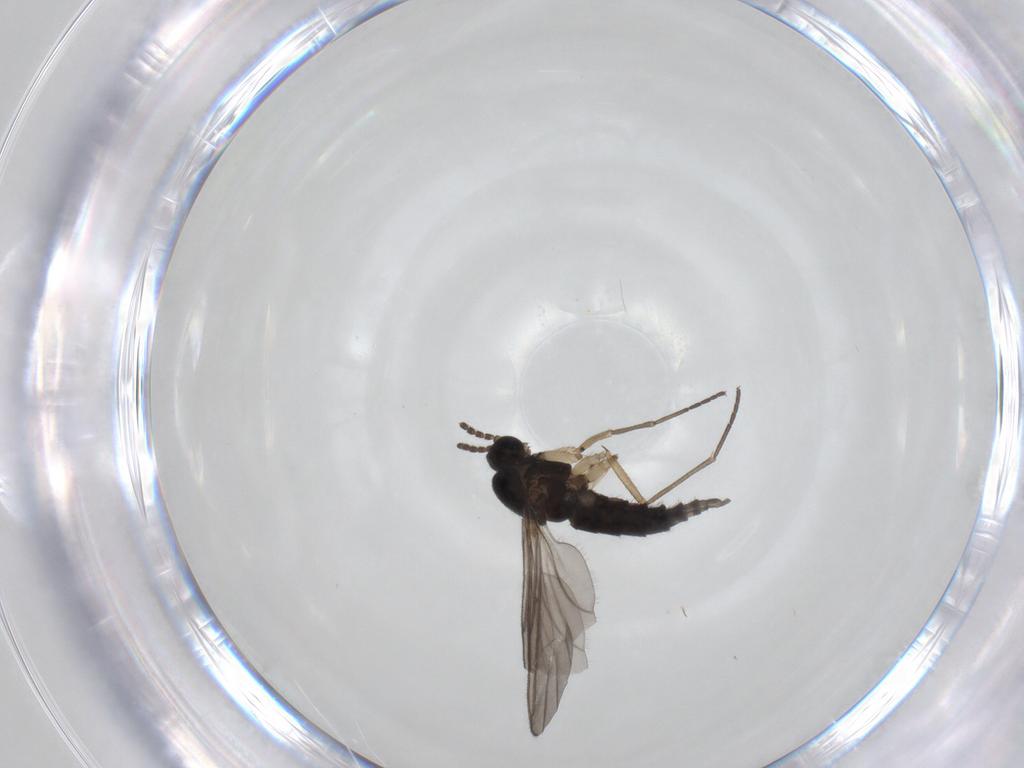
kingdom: Animalia
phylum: Arthropoda
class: Insecta
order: Diptera
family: Sciaridae
